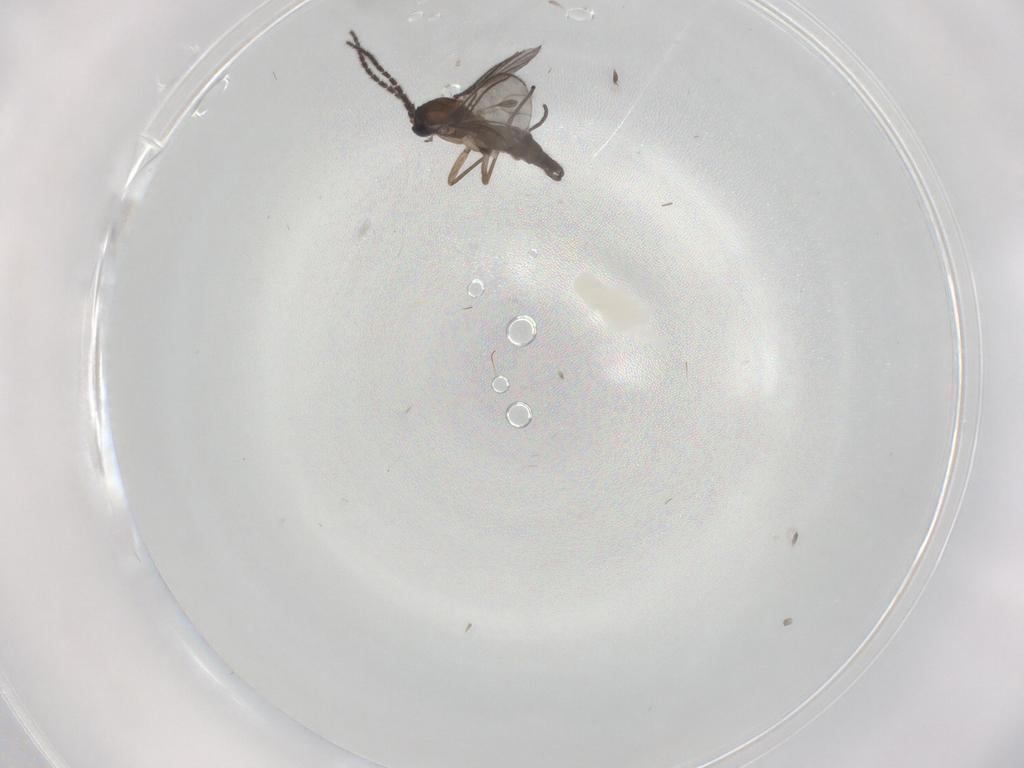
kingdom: Animalia
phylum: Arthropoda
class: Insecta
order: Diptera
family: Sciaridae
